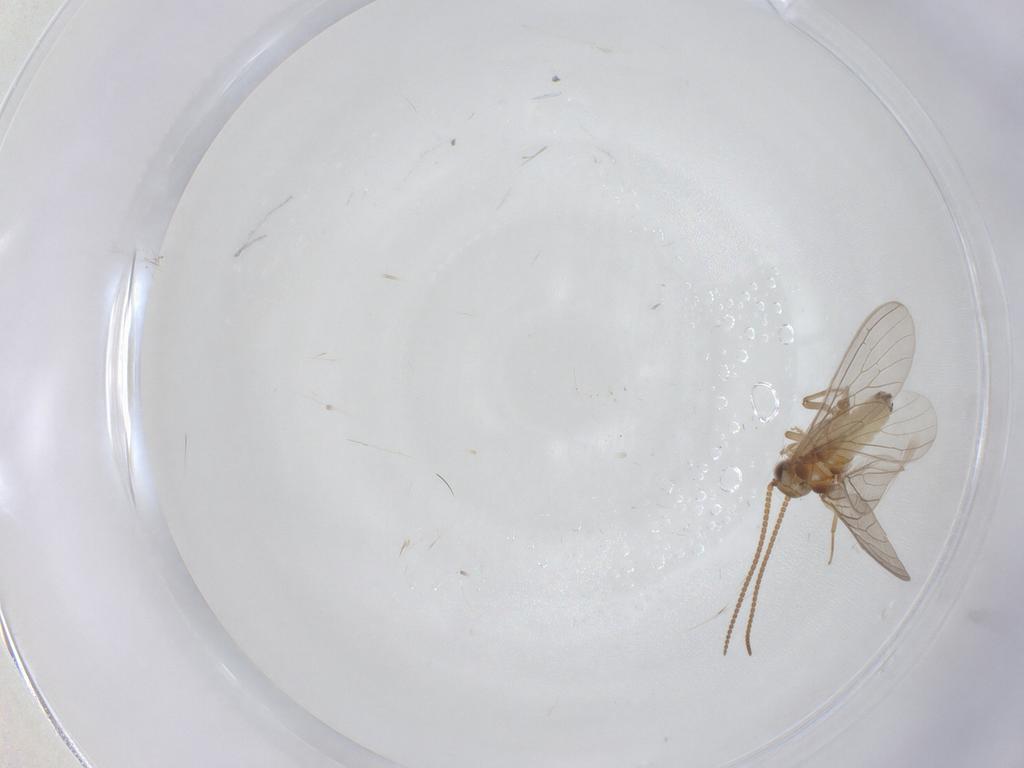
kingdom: Animalia
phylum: Arthropoda
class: Insecta
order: Neuroptera
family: Coniopterygidae
